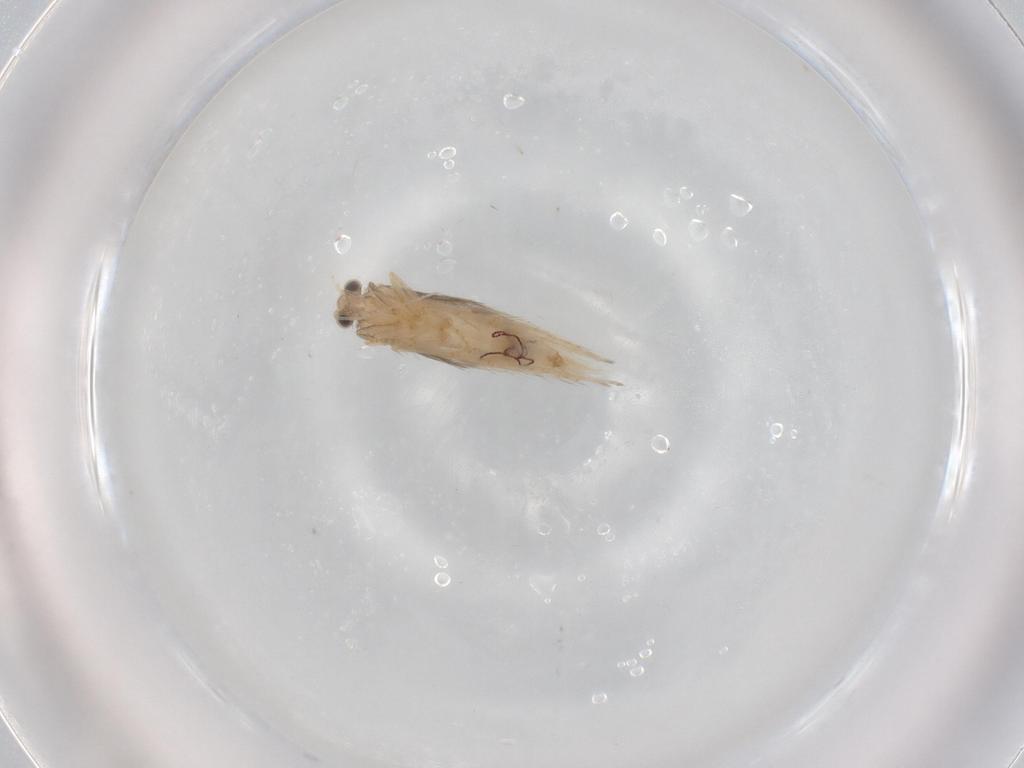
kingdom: Animalia
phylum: Arthropoda
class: Insecta
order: Trichoptera
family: Hydroptilidae
